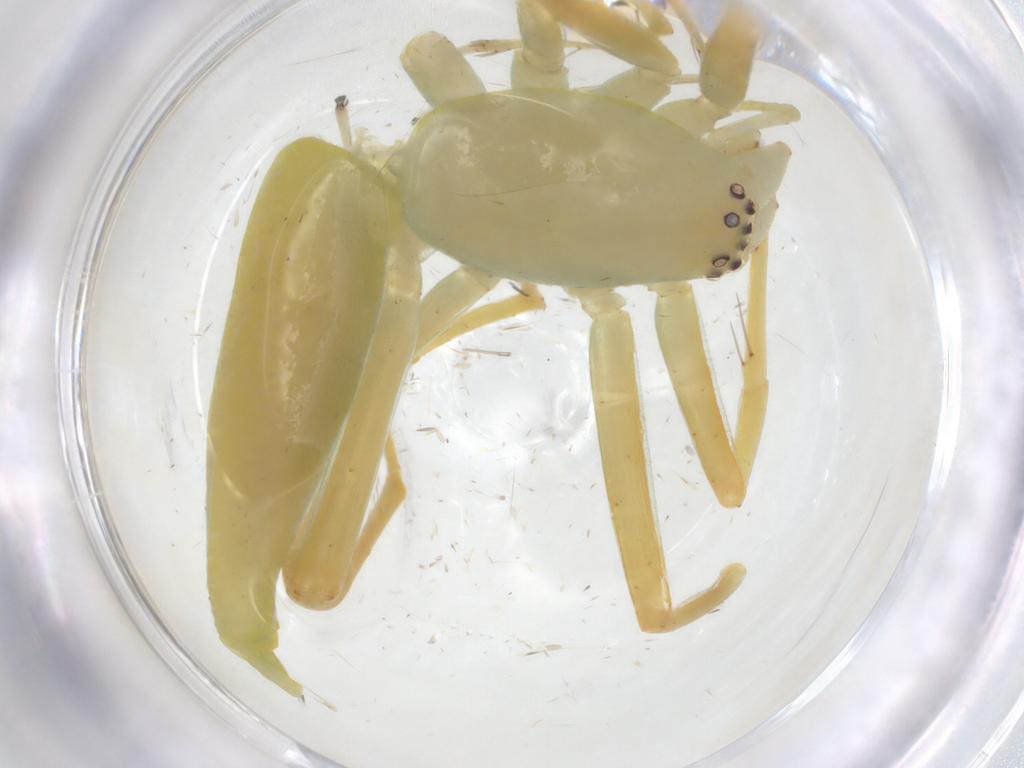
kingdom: Animalia
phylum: Arthropoda
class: Arachnida
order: Araneae
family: Clubionidae
